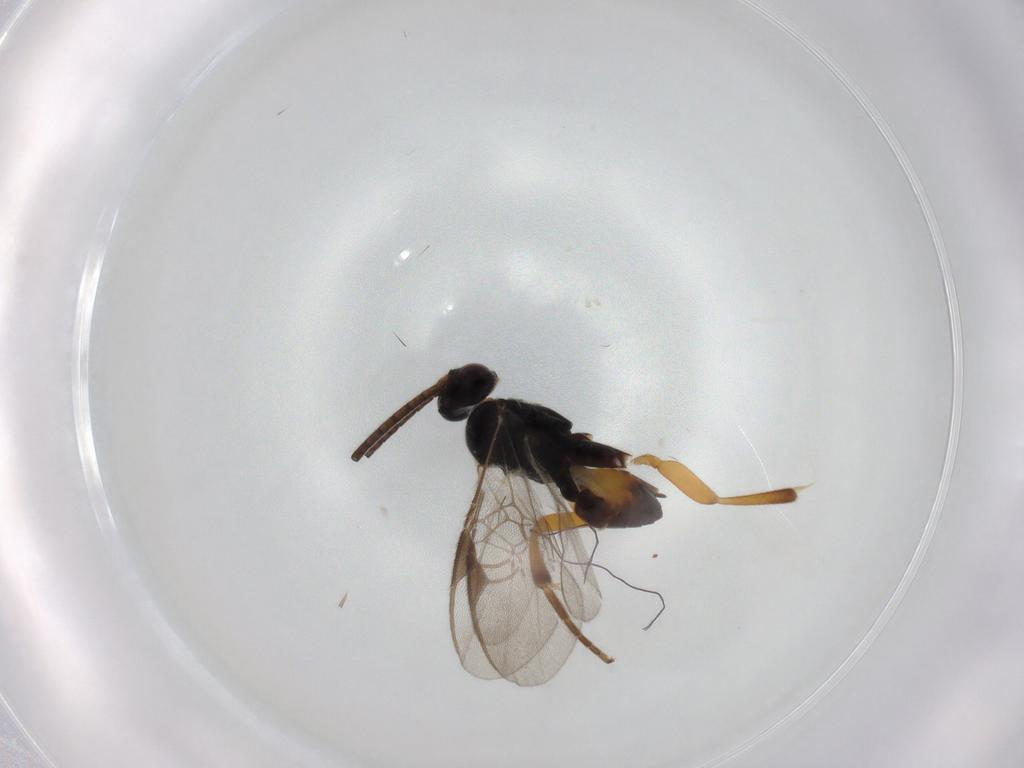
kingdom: Animalia
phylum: Arthropoda
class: Insecta
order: Hymenoptera
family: Braconidae
